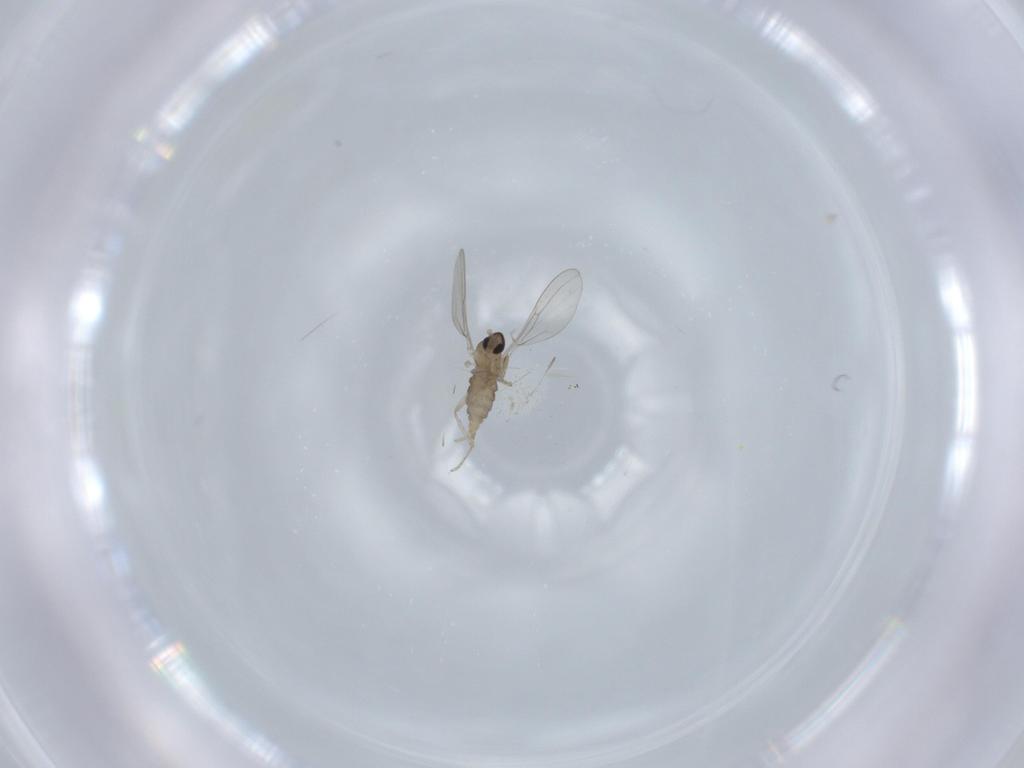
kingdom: Animalia
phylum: Arthropoda
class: Insecta
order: Diptera
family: Cecidomyiidae
